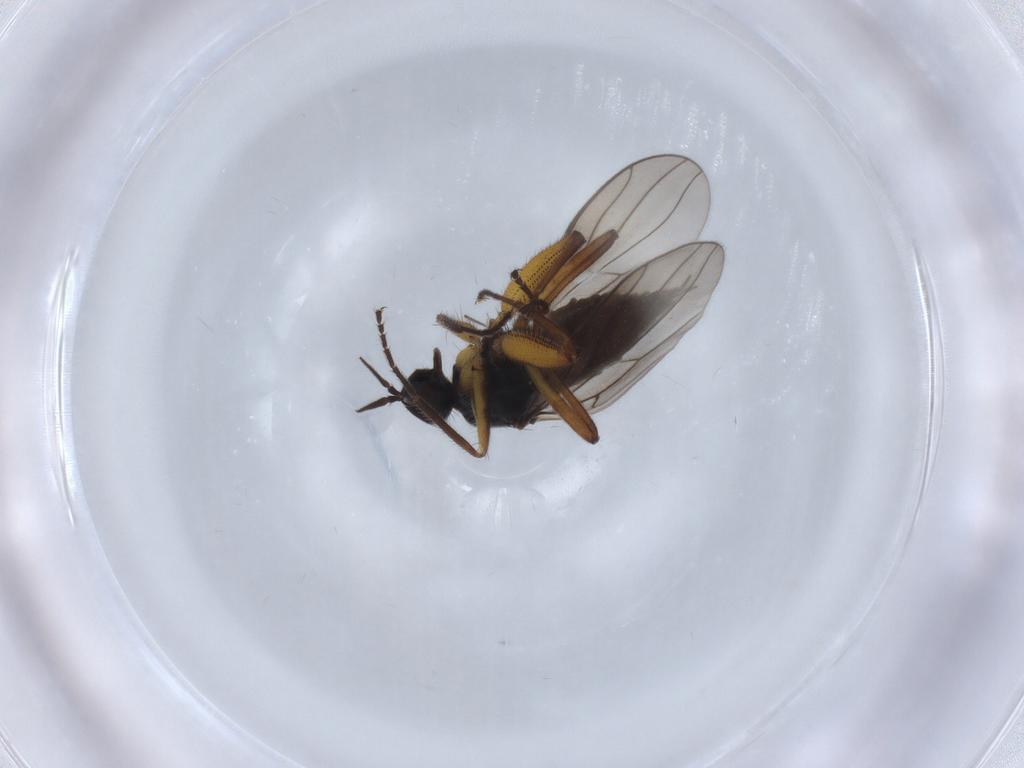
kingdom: Animalia
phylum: Arthropoda
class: Insecta
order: Diptera
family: Hybotidae
